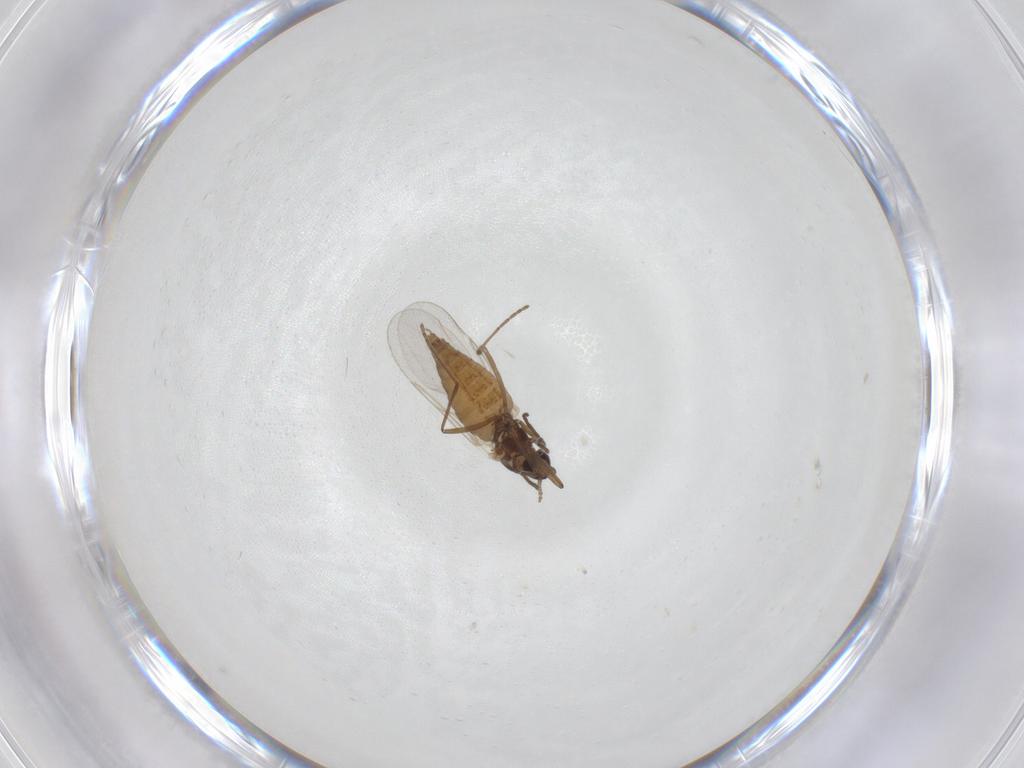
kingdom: Animalia
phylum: Arthropoda
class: Insecta
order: Diptera
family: Cecidomyiidae
